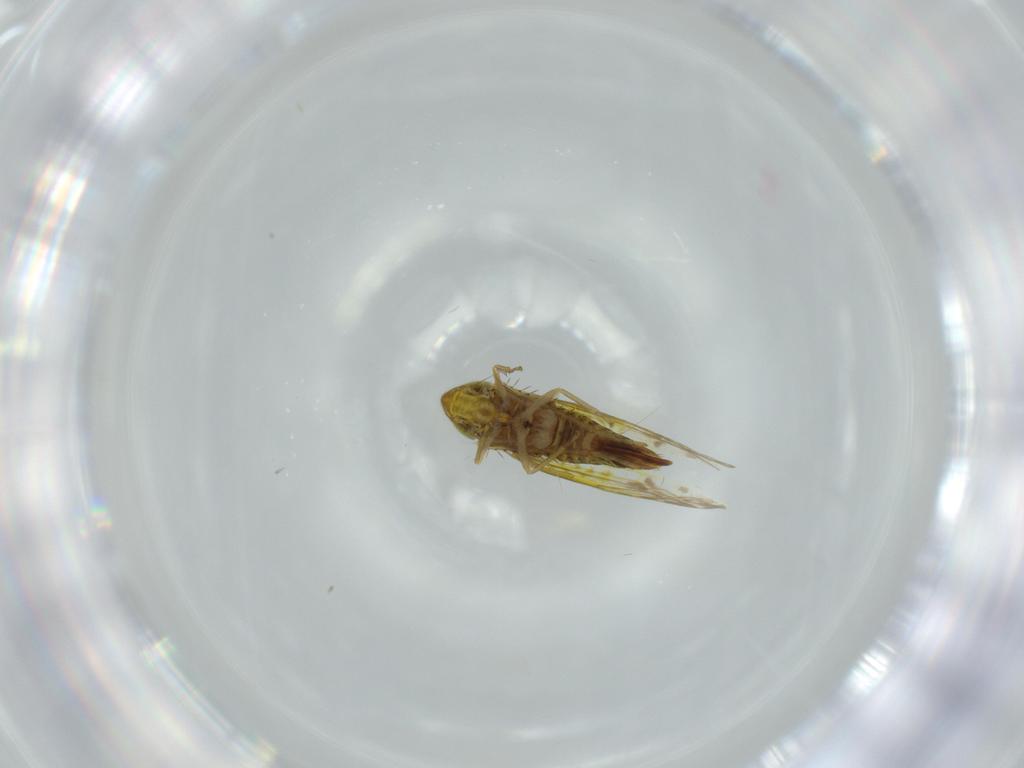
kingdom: Animalia
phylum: Arthropoda
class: Insecta
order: Hemiptera
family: Cicadellidae
